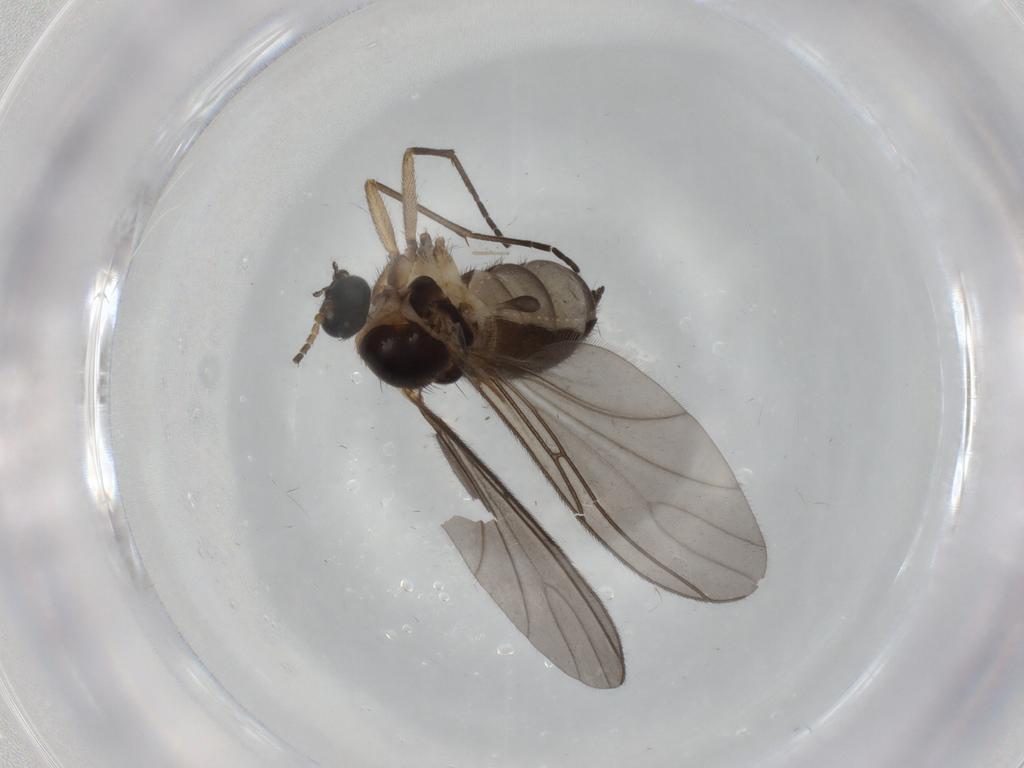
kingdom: Animalia
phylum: Arthropoda
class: Insecta
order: Diptera
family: Sciaridae
